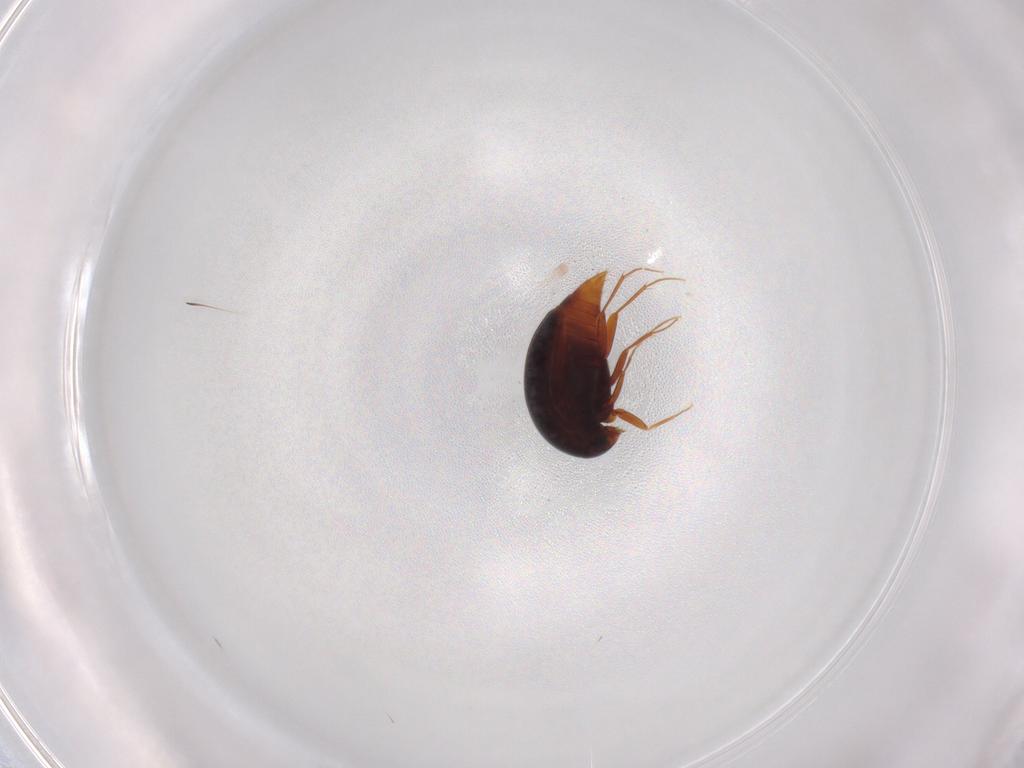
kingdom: Animalia
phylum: Arthropoda
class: Insecta
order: Coleoptera
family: Staphylinidae
